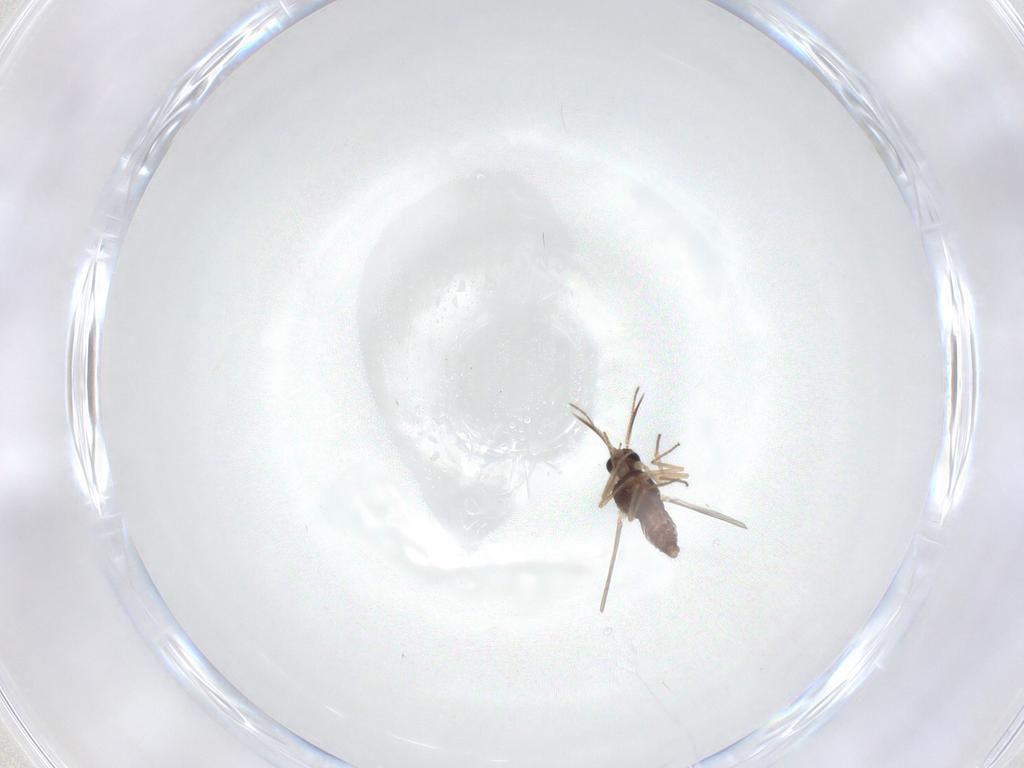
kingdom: Animalia
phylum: Arthropoda
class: Insecta
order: Diptera
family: Ceratopogonidae
